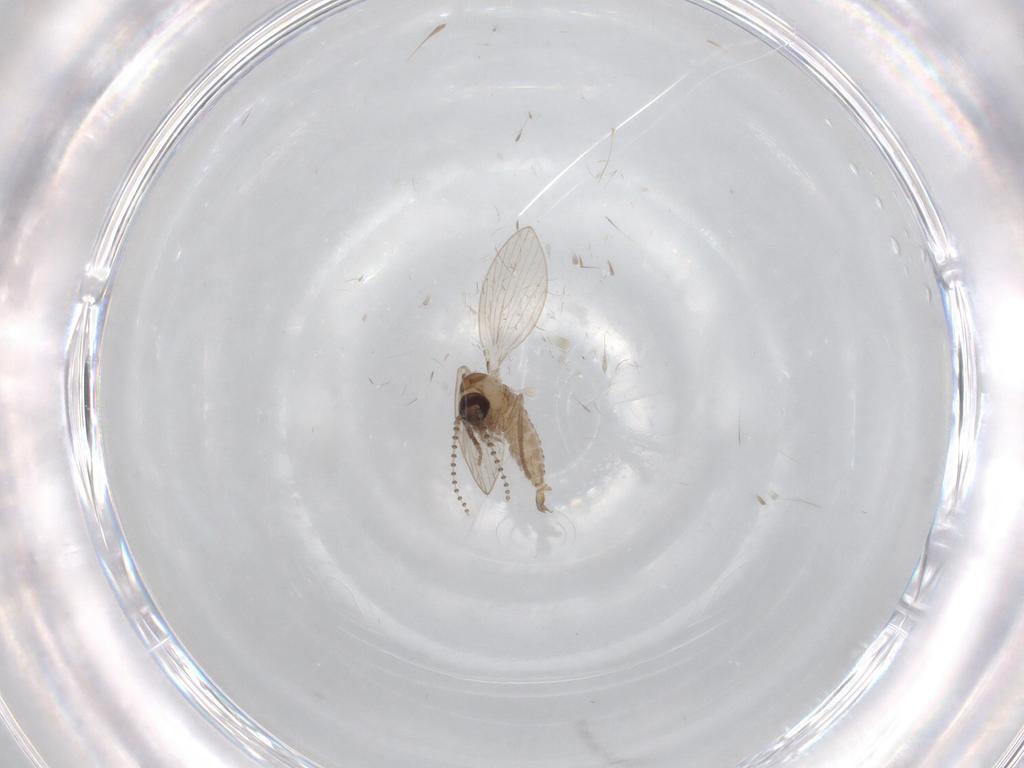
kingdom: Animalia
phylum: Arthropoda
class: Insecta
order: Diptera
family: Psychodidae
